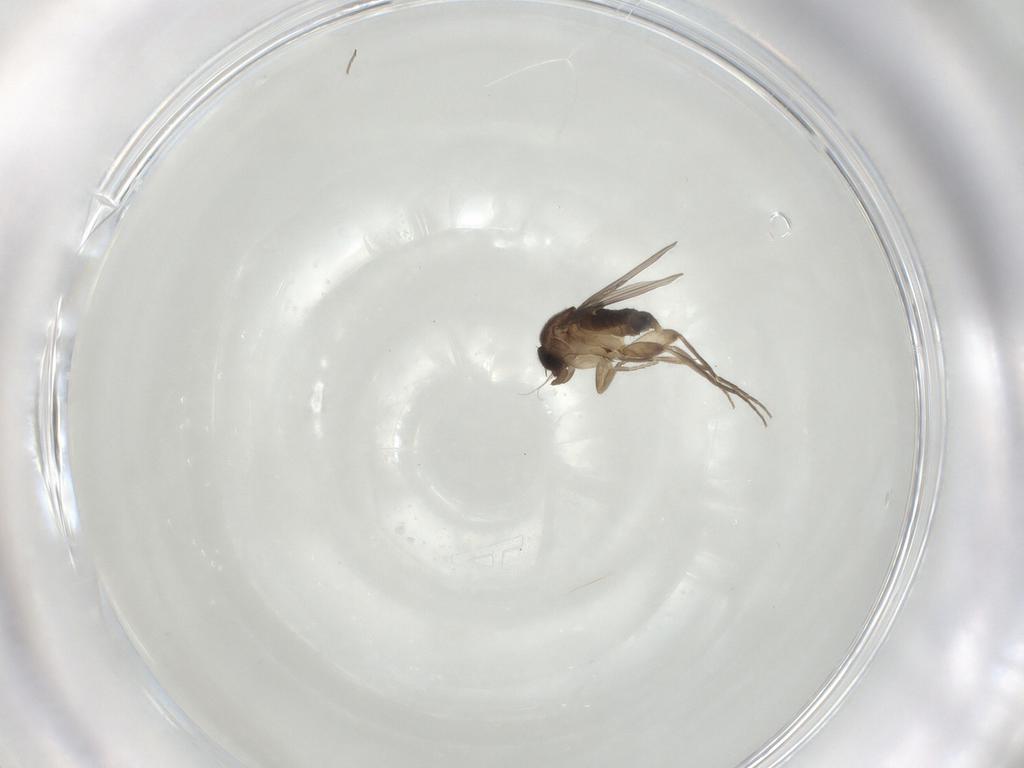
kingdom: Animalia
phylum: Arthropoda
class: Insecta
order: Diptera
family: Phoridae
